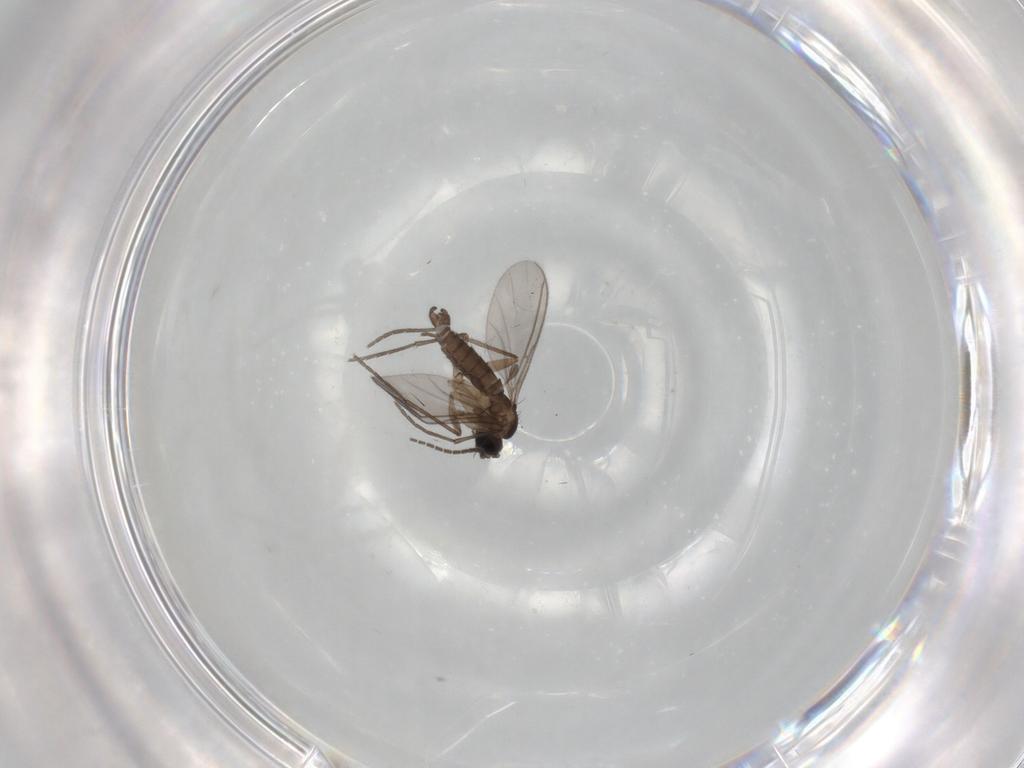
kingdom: Animalia
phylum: Arthropoda
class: Insecta
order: Diptera
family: Sciaridae
